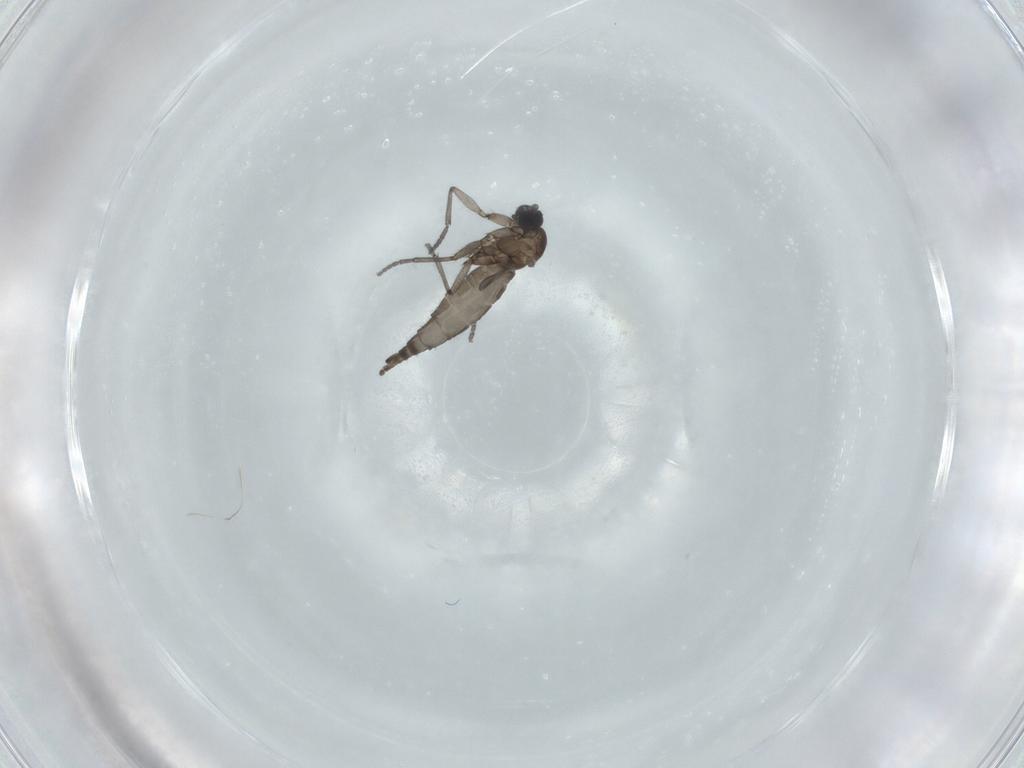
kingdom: Animalia
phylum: Arthropoda
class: Insecta
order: Diptera
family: Sciaridae
